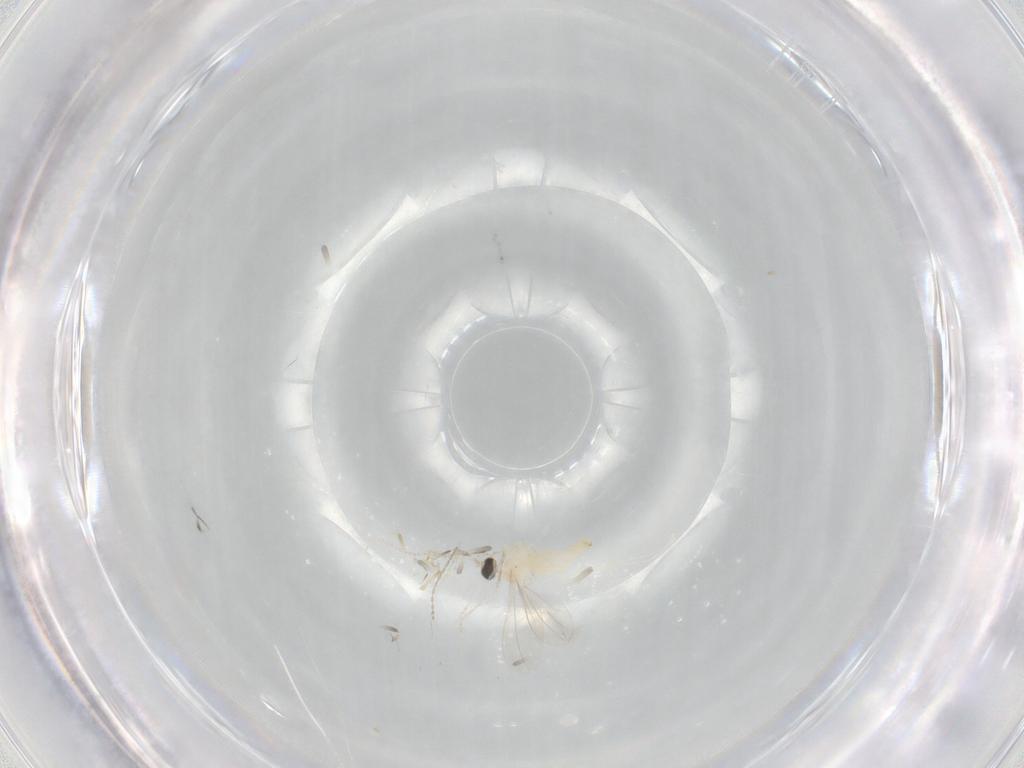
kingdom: Animalia
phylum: Arthropoda
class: Insecta
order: Diptera
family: Cecidomyiidae
